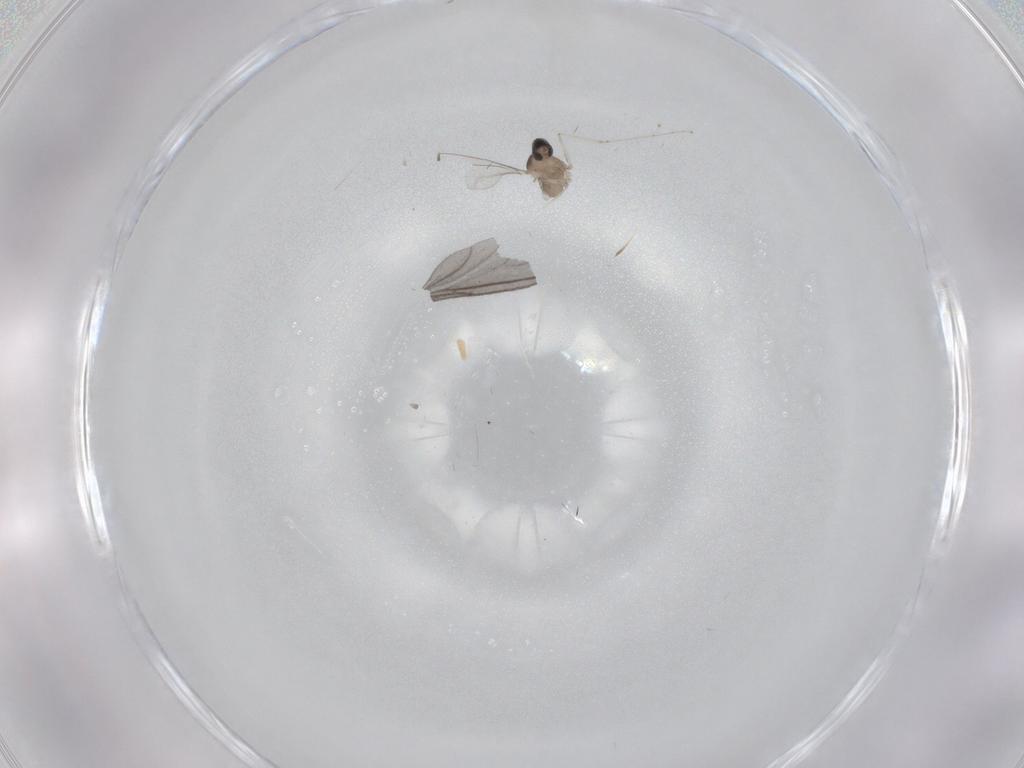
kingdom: Animalia
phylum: Arthropoda
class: Insecta
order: Diptera
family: Cecidomyiidae
